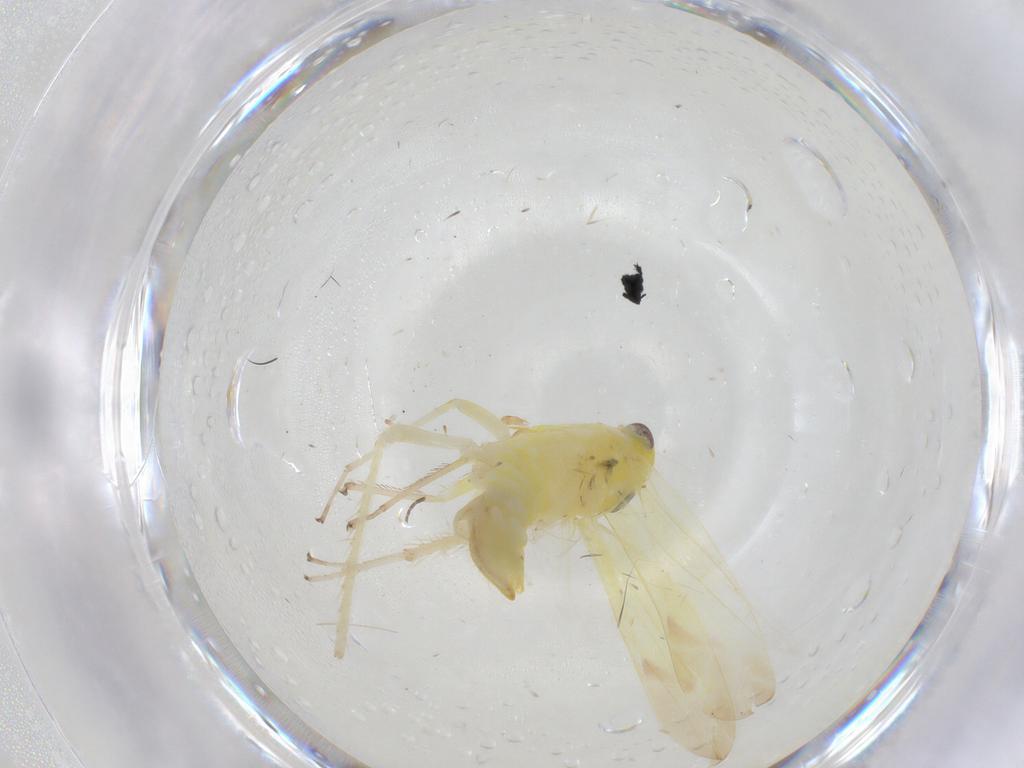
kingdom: Animalia
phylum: Arthropoda
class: Insecta
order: Hemiptera
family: Cicadellidae
